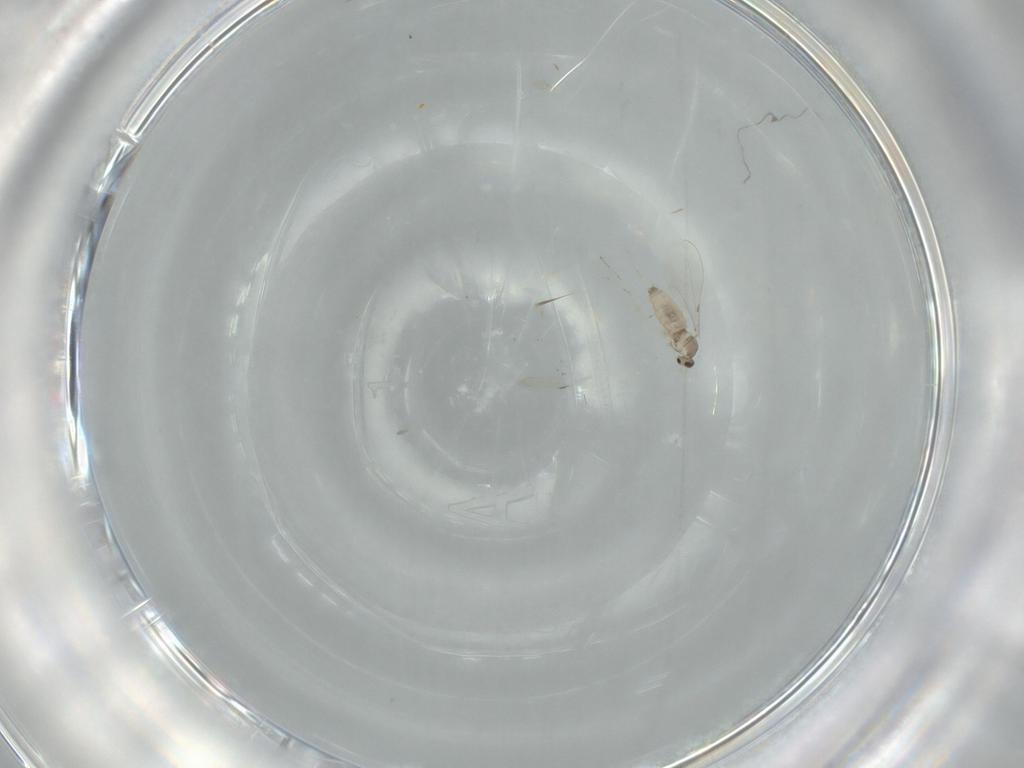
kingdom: Animalia
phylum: Arthropoda
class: Insecta
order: Diptera
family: Cecidomyiidae
